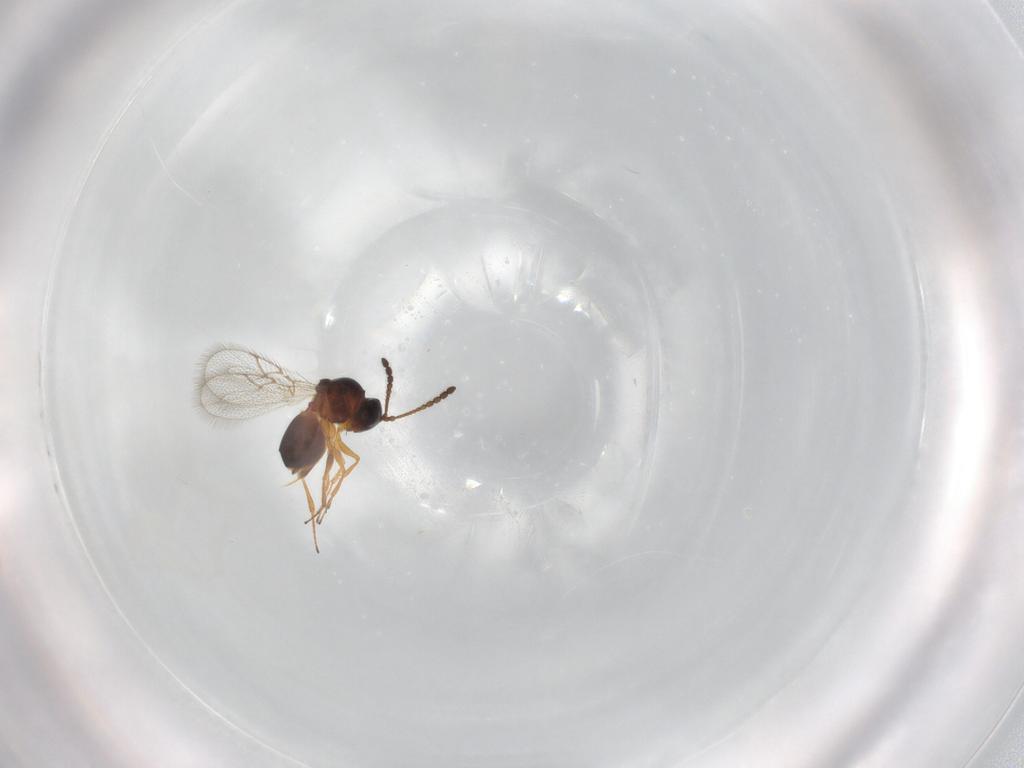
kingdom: Animalia
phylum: Arthropoda
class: Insecta
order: Hymenoptera
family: Figitidae
